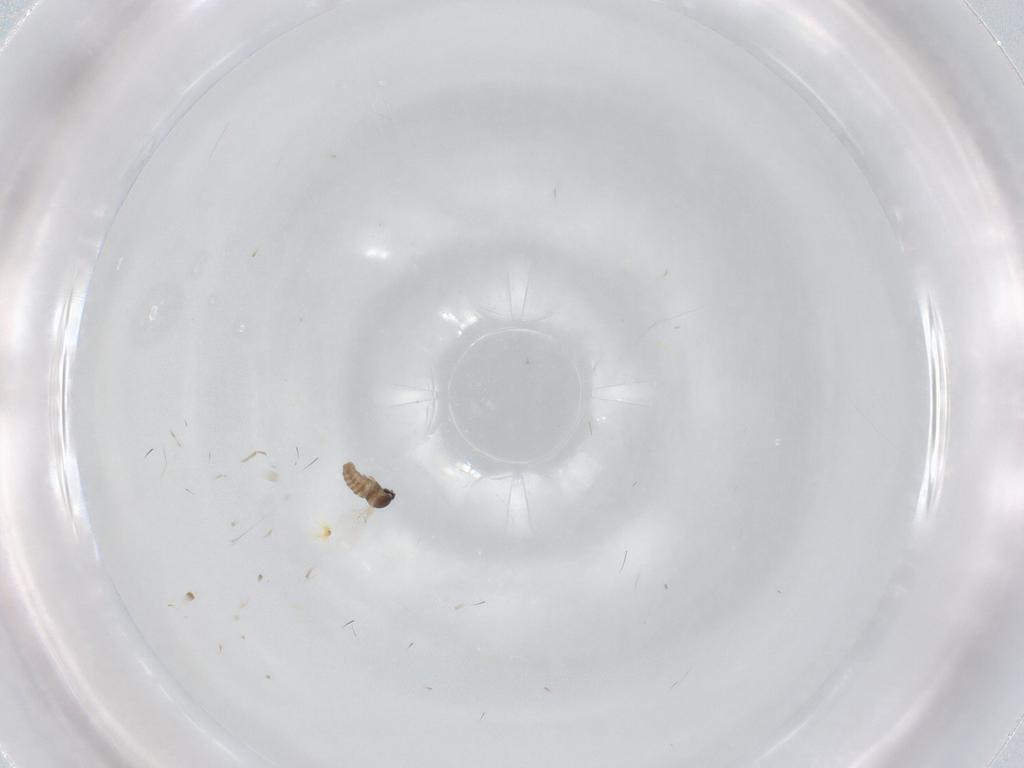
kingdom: Animalia
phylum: Arthropoda
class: Insecta
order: Diptera
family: Cecidomyiidae
